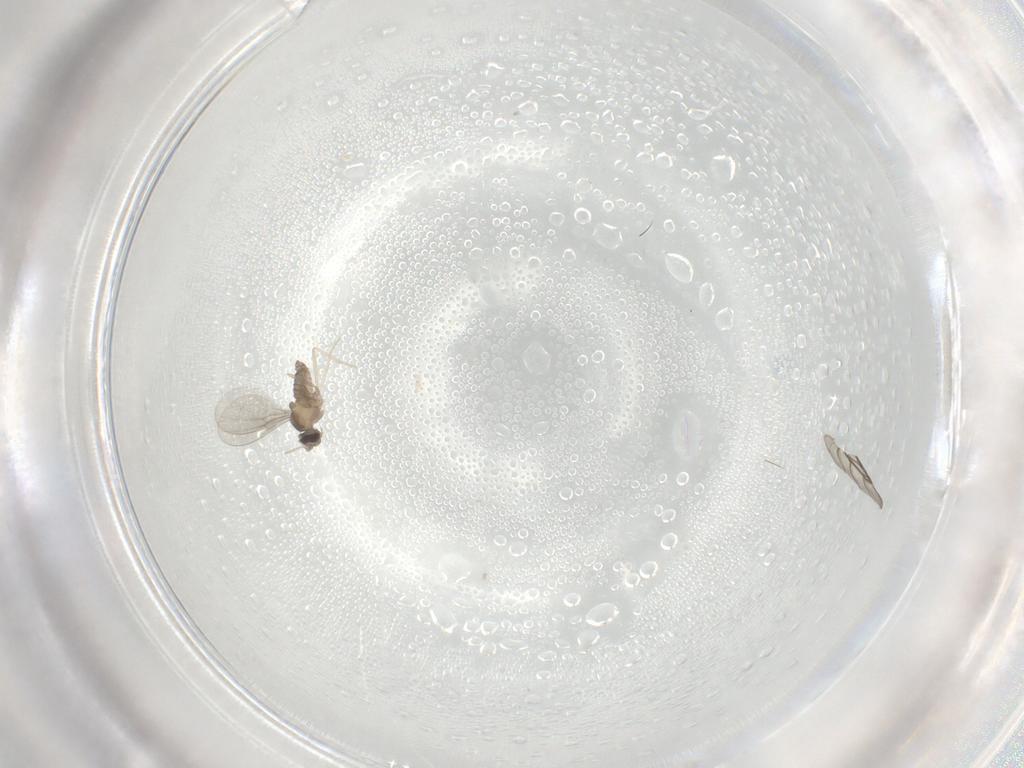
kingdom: Animalia
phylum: Arthropoda
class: Insecta
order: Diptera
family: Cecidomyiidae
